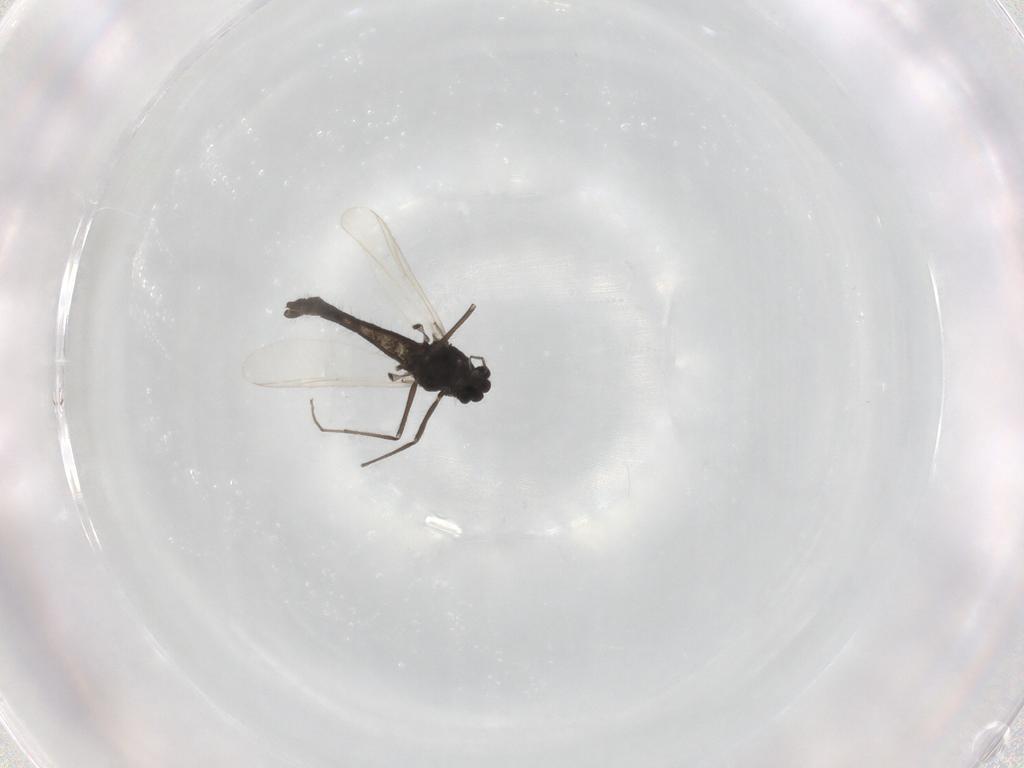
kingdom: Animalia
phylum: Arthropoda
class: Insecta
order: Diptera
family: Chironomidae
